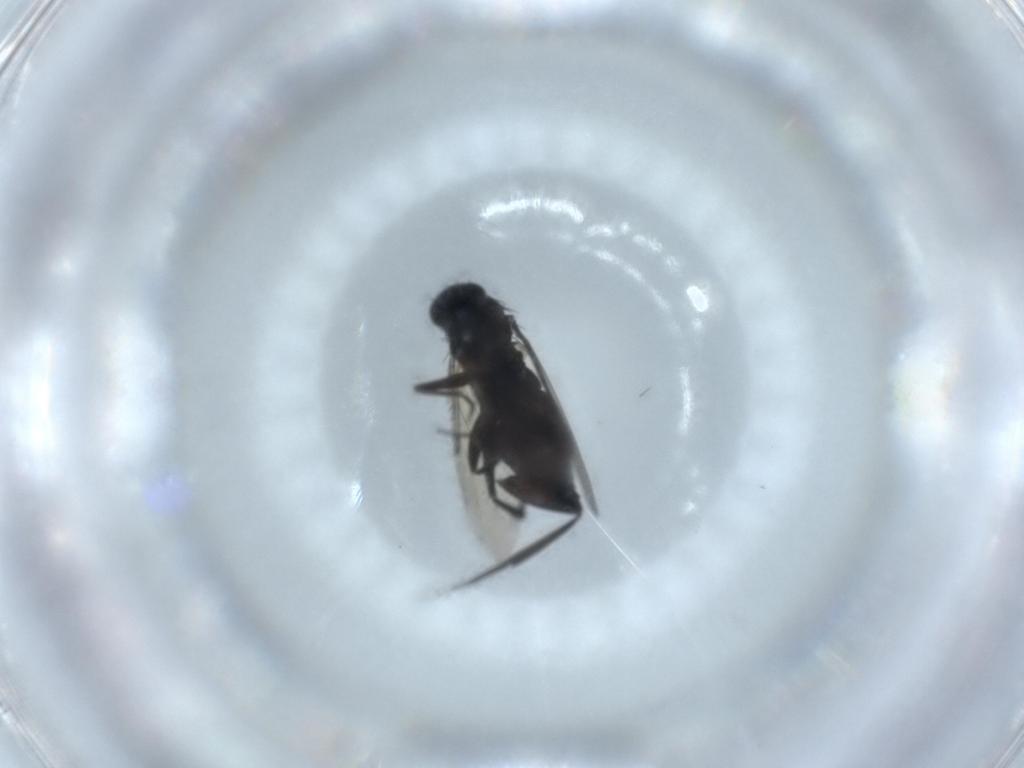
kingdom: Animalia
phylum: Arthropoda
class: Insecta
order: Diptera
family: Phoridae
